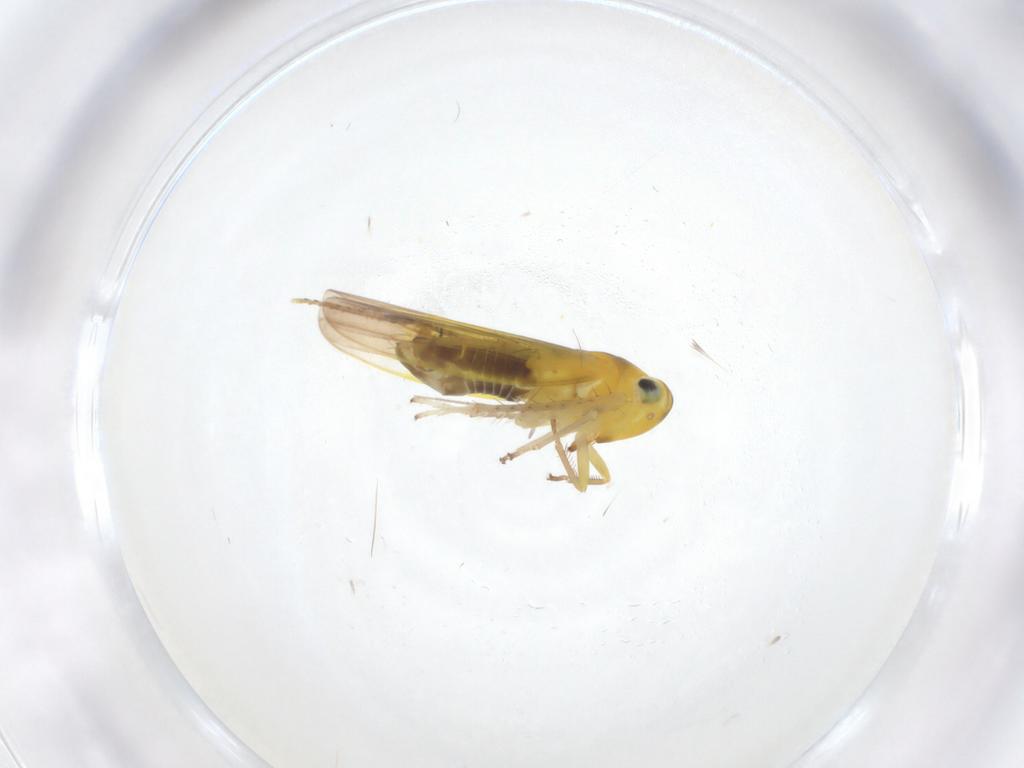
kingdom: Animalia
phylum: Arthropoda
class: Insecta
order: Hemiptera
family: Cicadellidae
